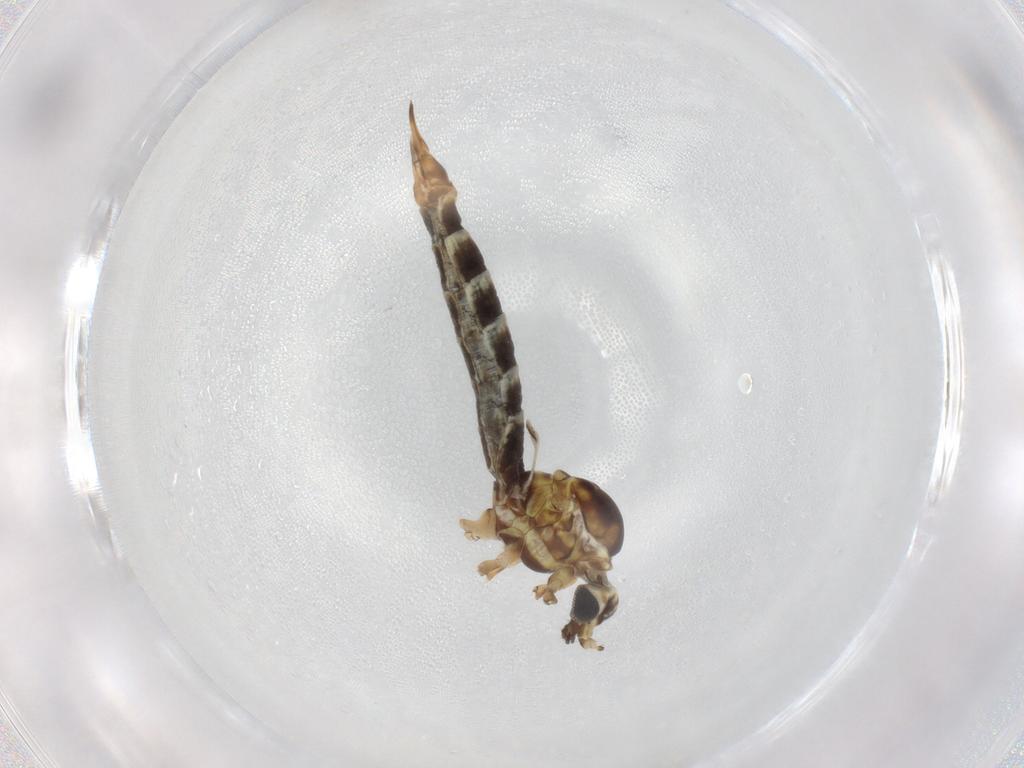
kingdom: Animalia
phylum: Arthropoda
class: Insecta
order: Diptera
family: Limoniidae
